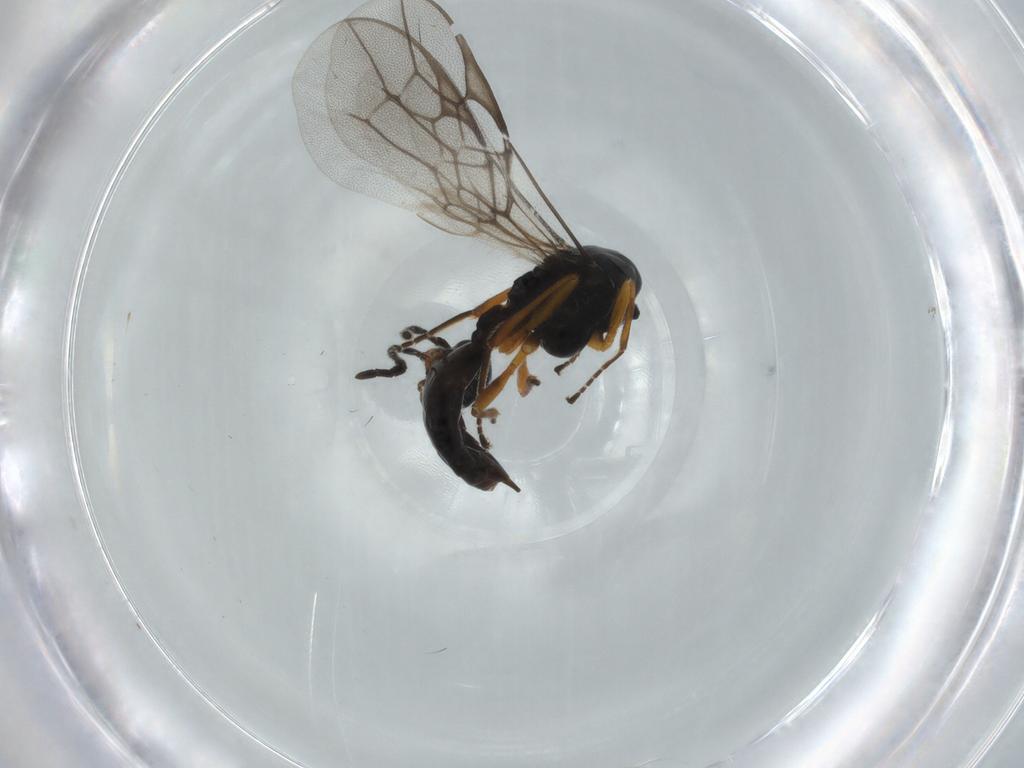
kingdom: Animalia
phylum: Arthropoda
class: Insecta
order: Hymenoptera
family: Braconidae
